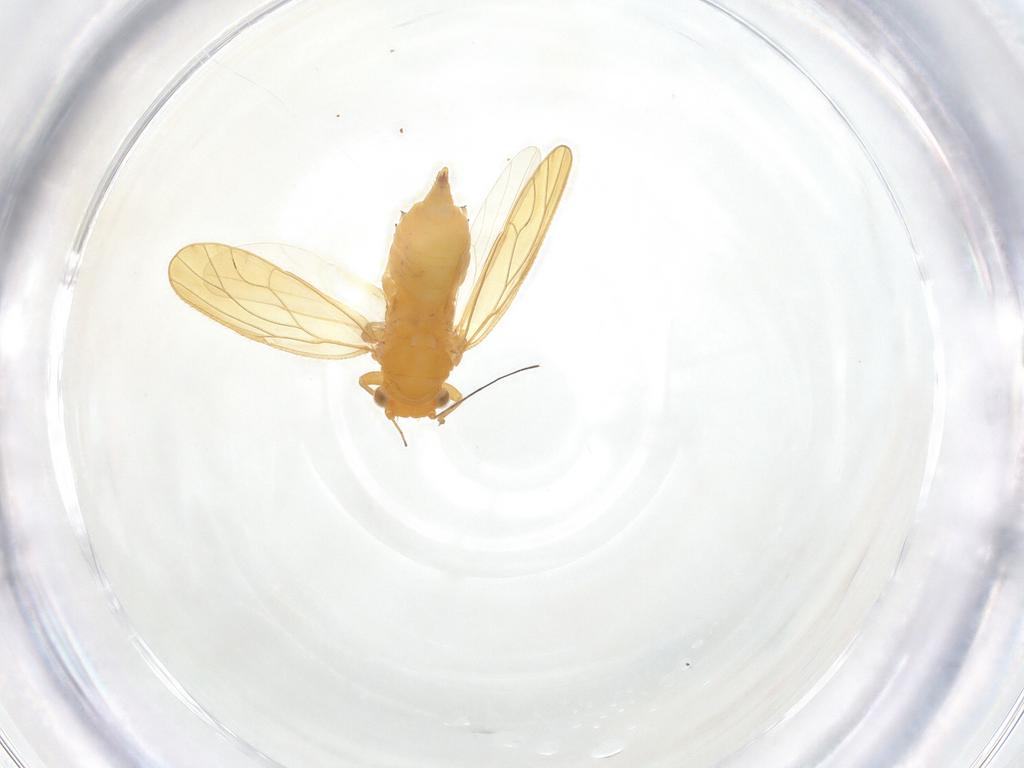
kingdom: Animalia
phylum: Arthropoda
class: Insecta
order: Hemiptera
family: Psyllidae
